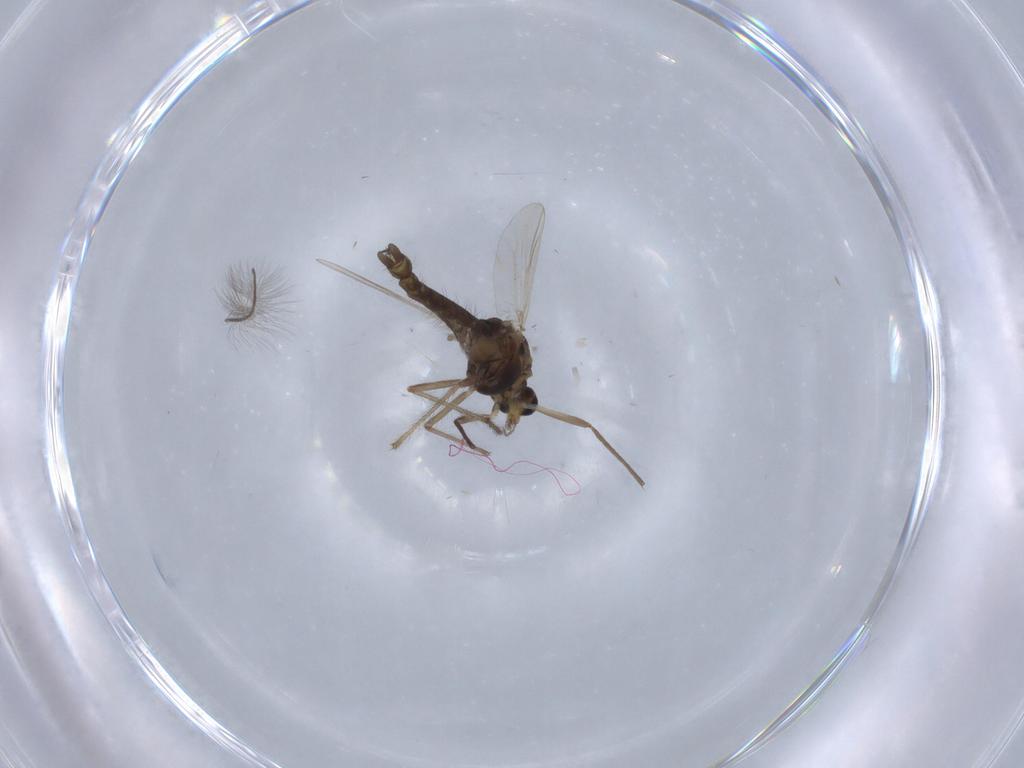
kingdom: Animalia
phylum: Arthropoda
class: Insecta
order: Diptera
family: Chironomidae
